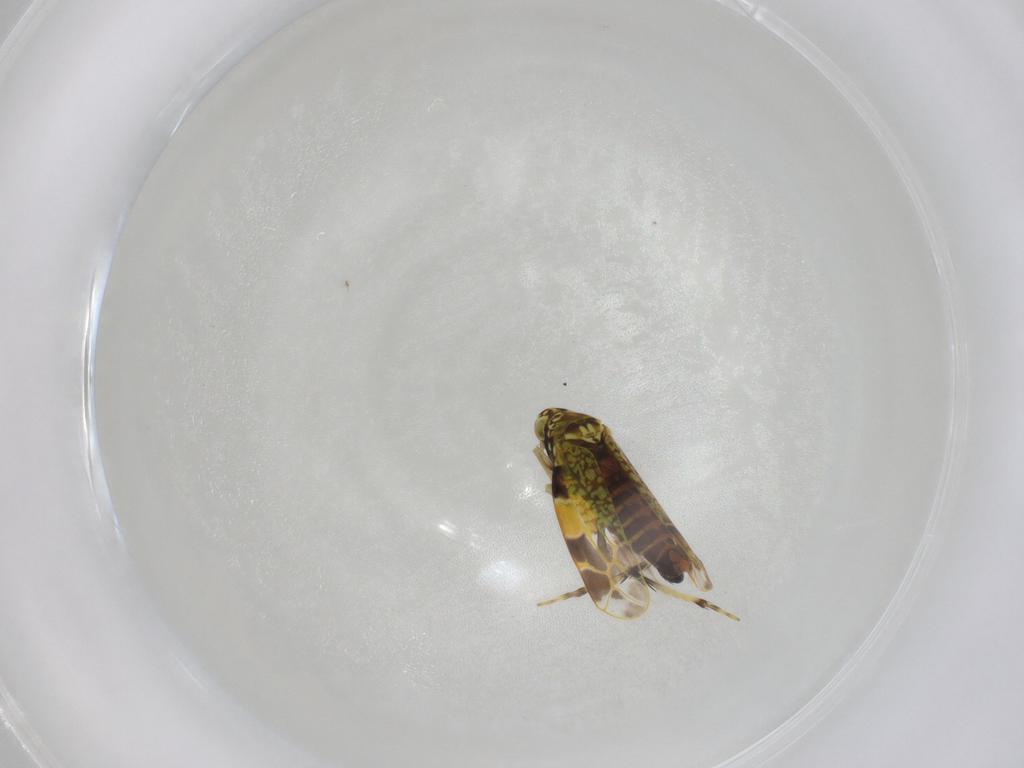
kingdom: Animalia
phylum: Arthropoda
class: Insecta
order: Hemiptera
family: Cicadellidae
